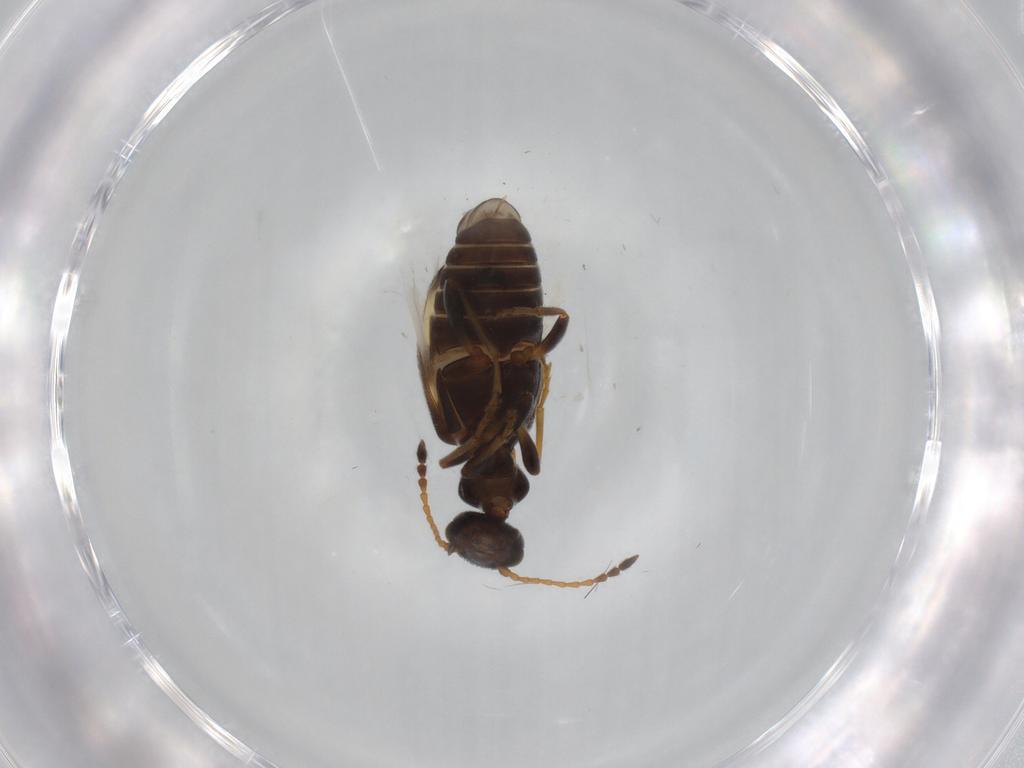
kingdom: Animalia
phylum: Arthropoda
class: Insecta
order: Coleoptera
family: Anthicidae
